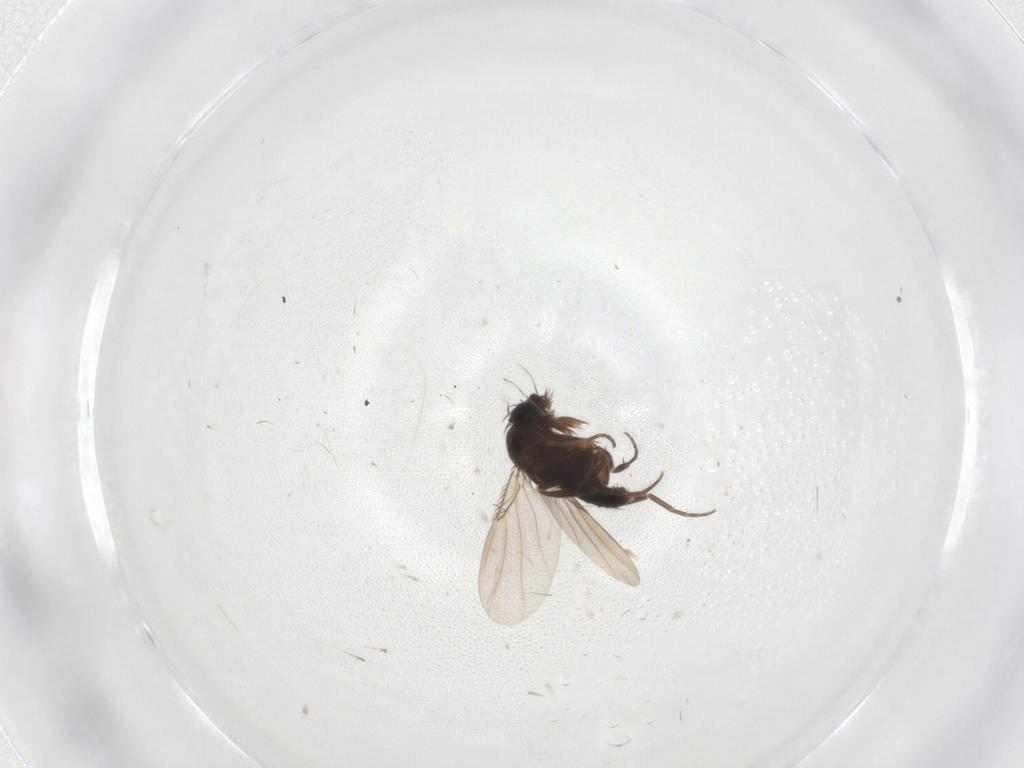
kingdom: Animalia
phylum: Arthropoda
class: Insecta
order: Diptera
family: Phoridae
